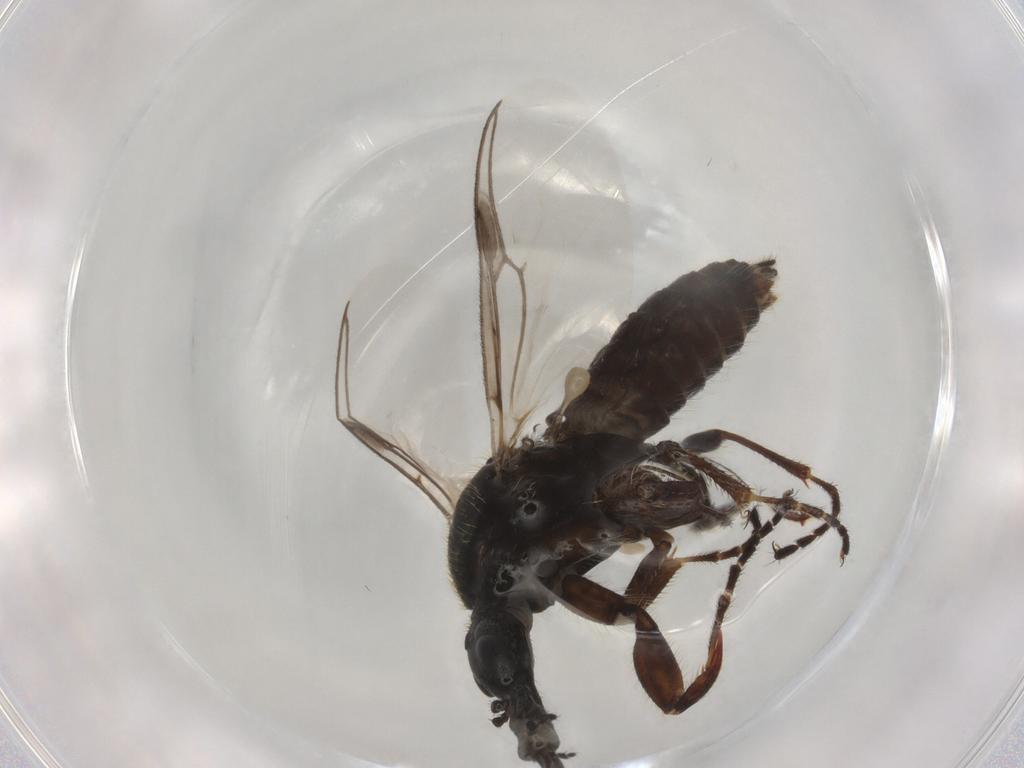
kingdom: Animalia
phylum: Arthropoda
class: Insecta
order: Diptera
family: Bibionidae
